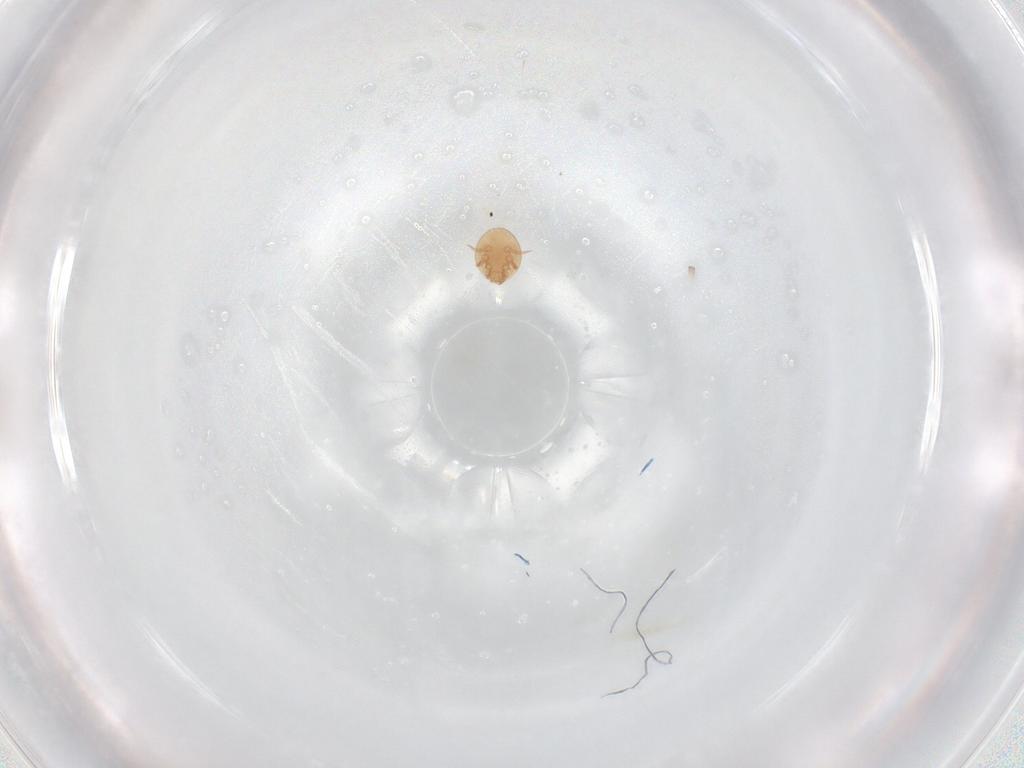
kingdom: Animalia
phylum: Arthropoda
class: Arachnida
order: Mesostigmata
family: Trematuridae
